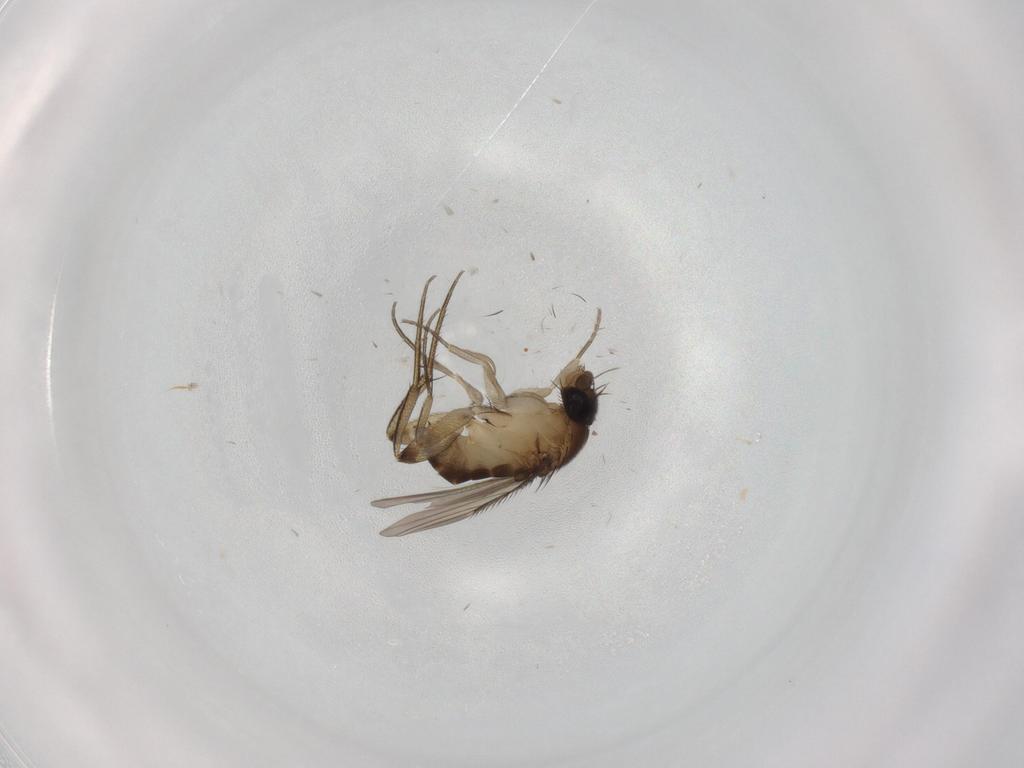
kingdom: Animalia
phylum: Arthropoda
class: Insecta
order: Diptera
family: Phoridae
